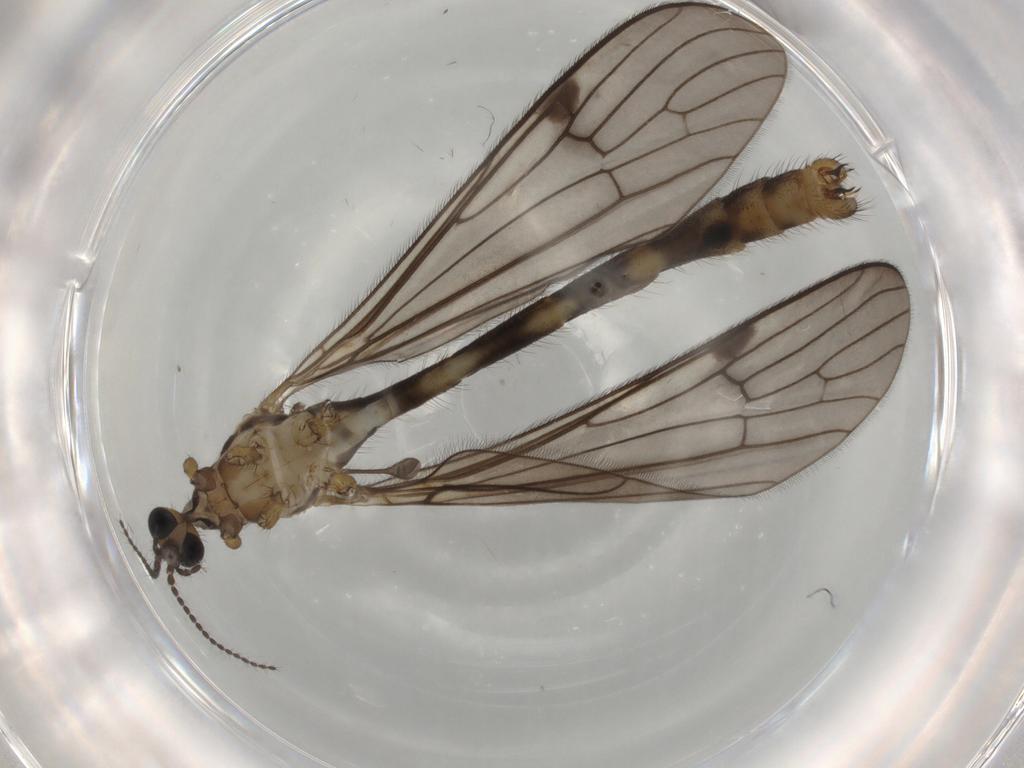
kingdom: Animalia
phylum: Arthropoda
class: Insecta
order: Diptera
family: Limoniidae
